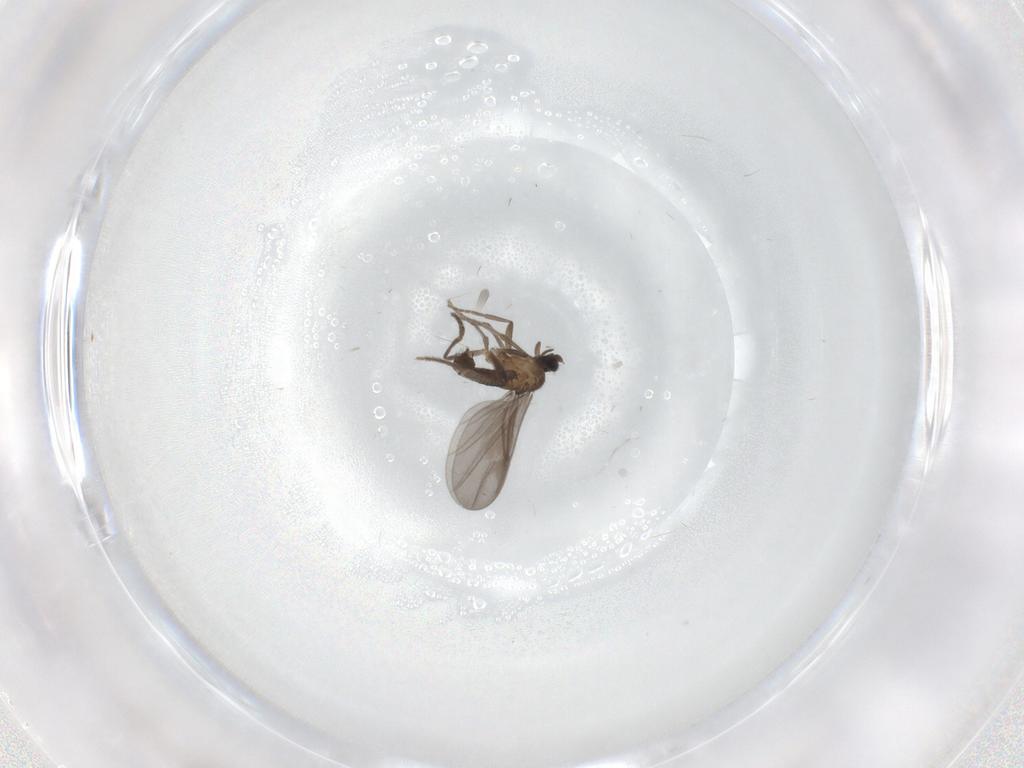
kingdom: Animalia
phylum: Arthropoda
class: Insecta
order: Diptera
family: Phoridae
